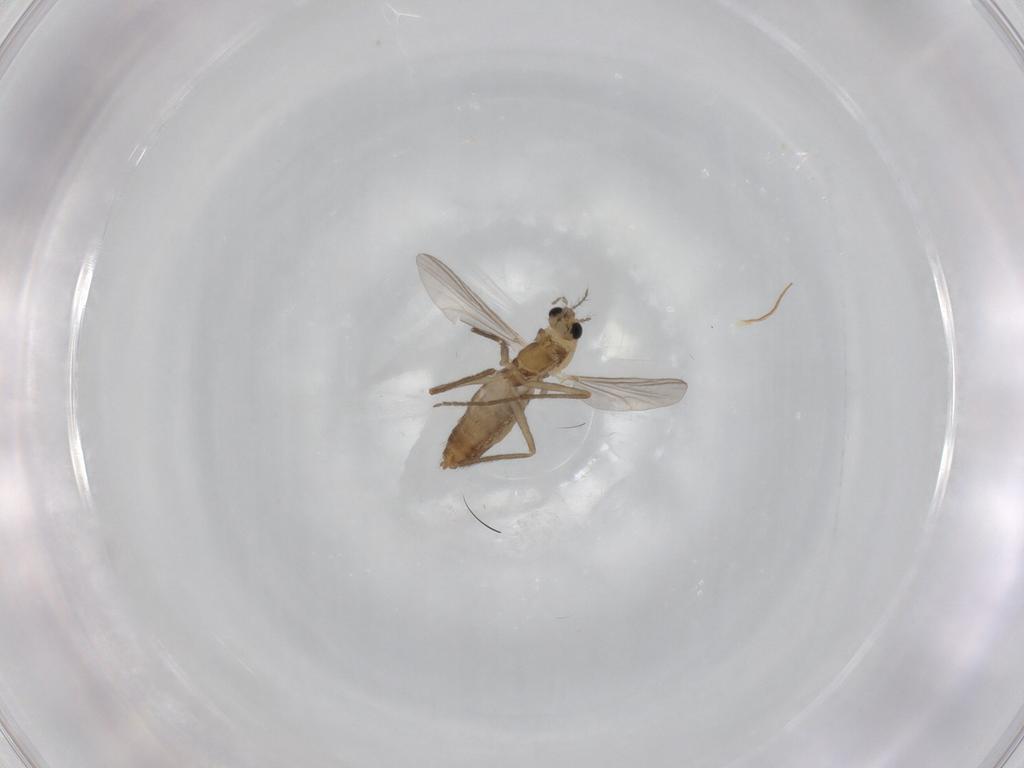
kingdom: Animalia
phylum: Arthropoda
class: Insecta
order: Diptera
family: Chironomidae
